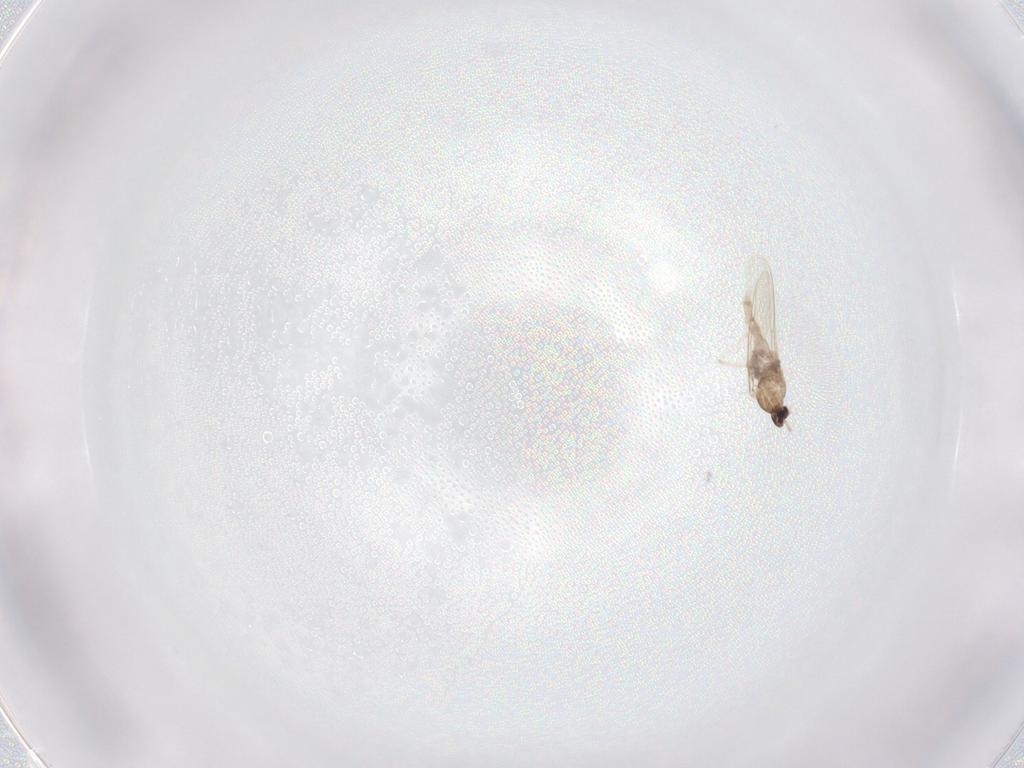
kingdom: Animalia
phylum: Arthropoda
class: Insecta
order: Diptera
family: Cecidomyiidae
